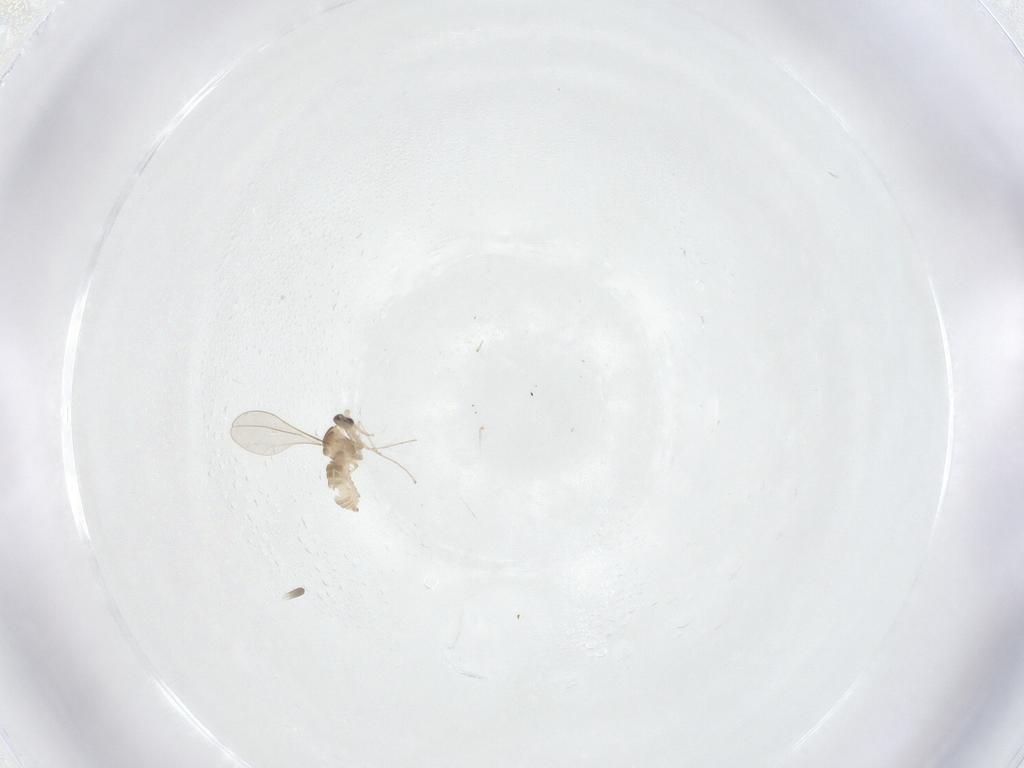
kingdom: Animalia
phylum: Arthropoda
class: Insecta
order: Diptera
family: Cecidomyiidae
